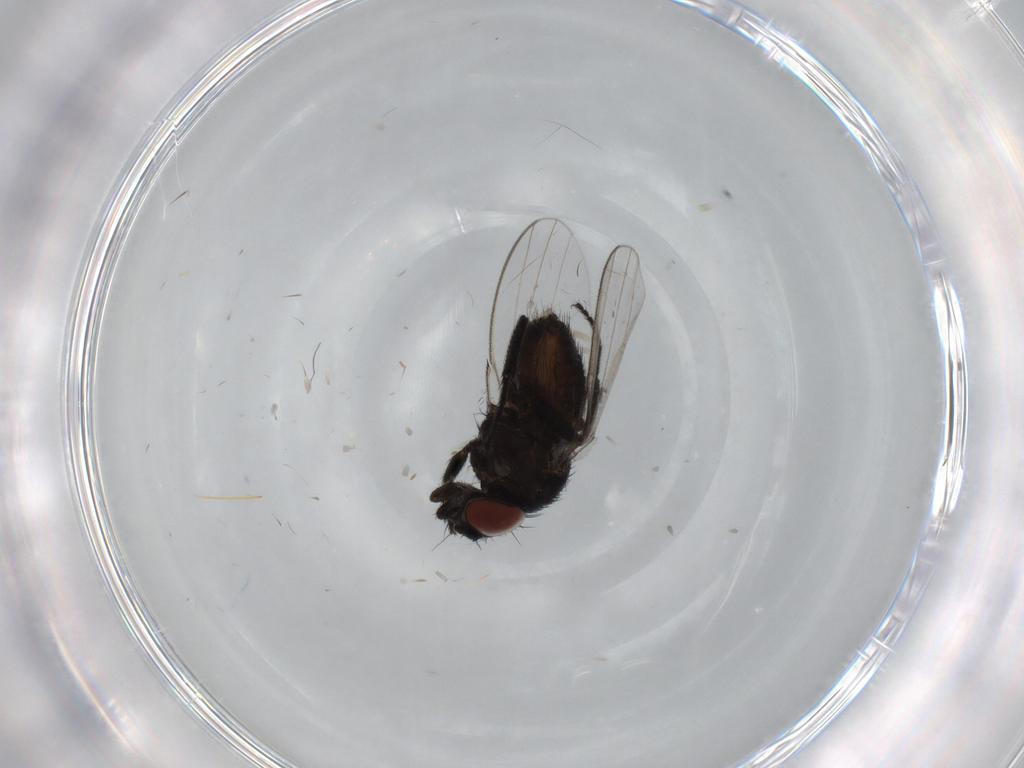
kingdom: Animalia
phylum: Arthropoda
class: Insecta
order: Diptera
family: Milichiidae
